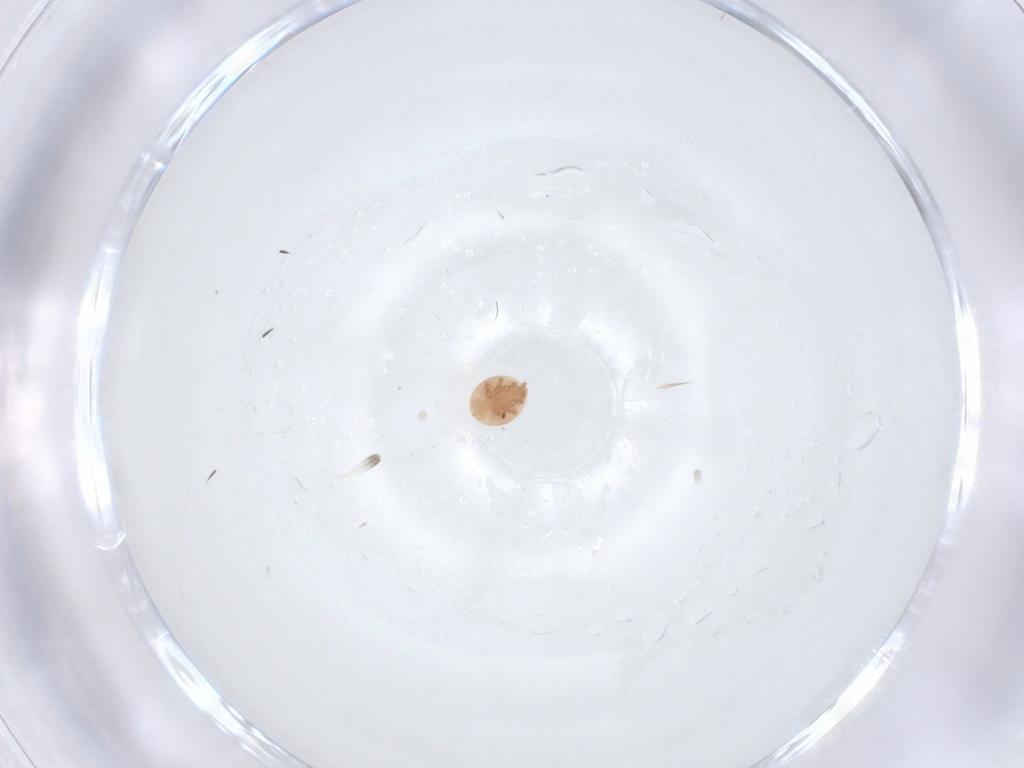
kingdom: Animalia
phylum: Arthropoda
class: Arachnida
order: Mesostigmata
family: Trematuridae
